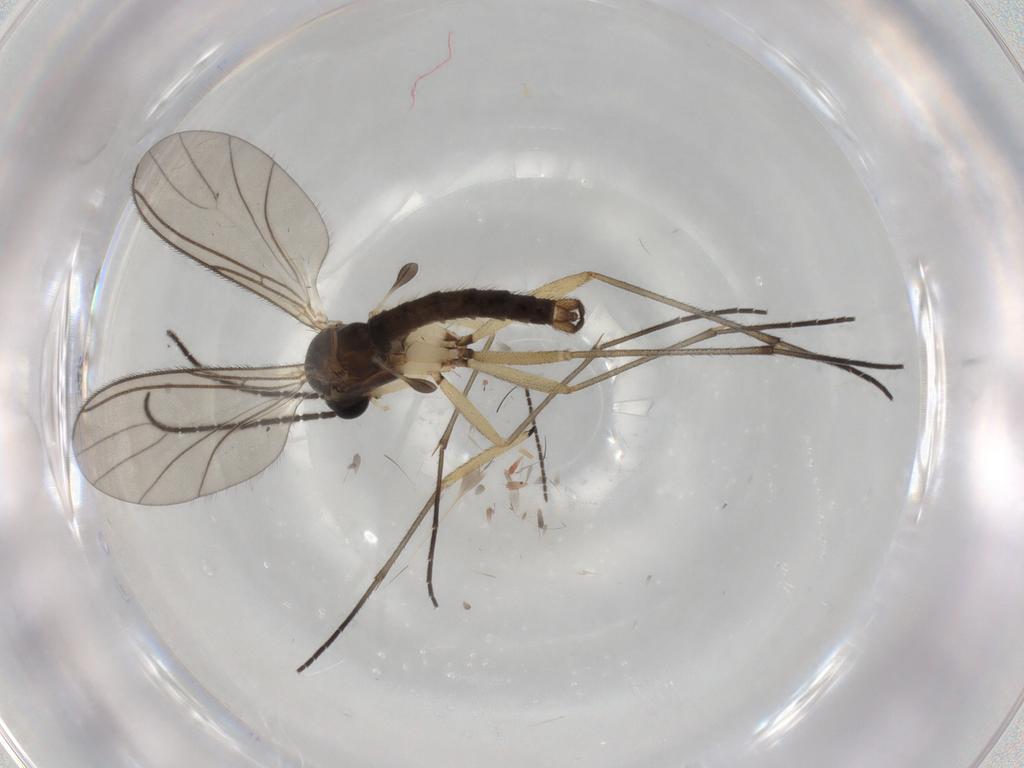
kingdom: Animalia
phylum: Arthropoda
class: Insecta
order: Diptera
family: Sciaridae
